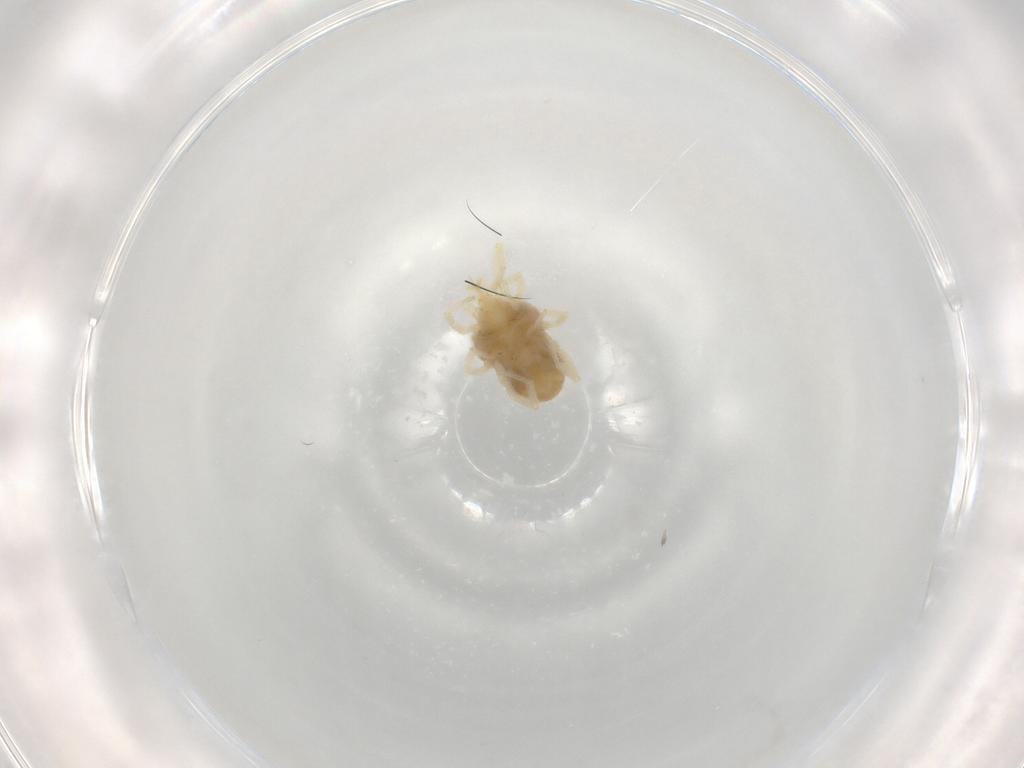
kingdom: Animalia
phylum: Arthropoda
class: Arachnida
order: Trombidiformes
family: Erythraeidae
